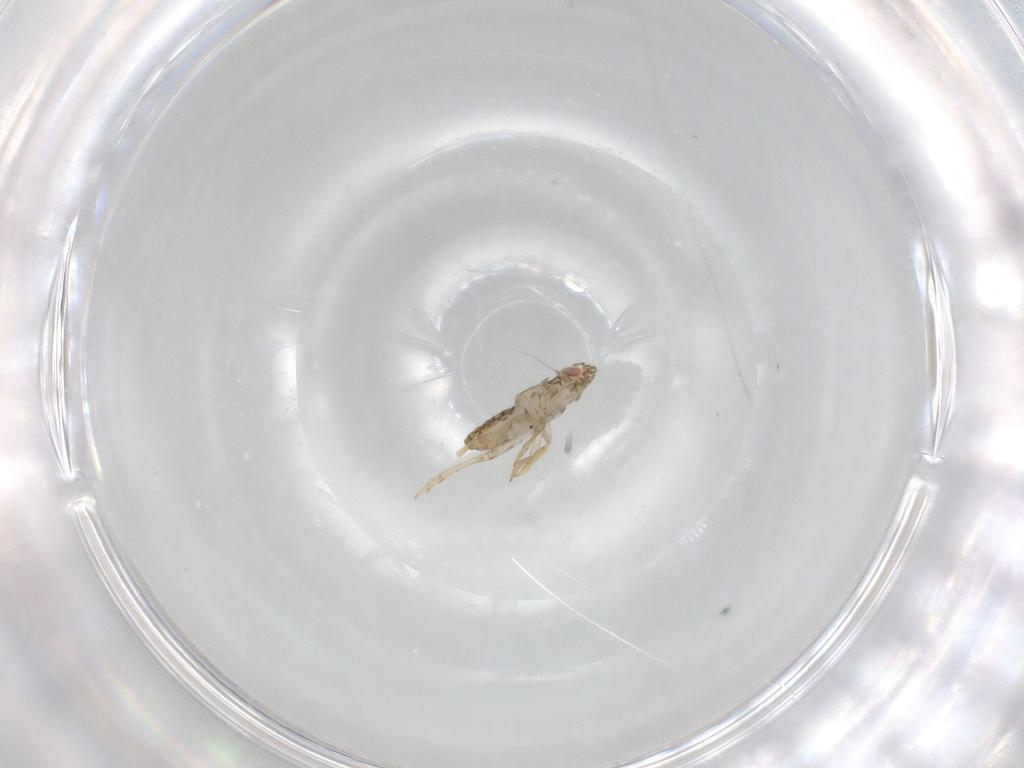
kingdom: Animalia
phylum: Arthropoda
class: Insecta
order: Hemiptera
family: Delphacidae
